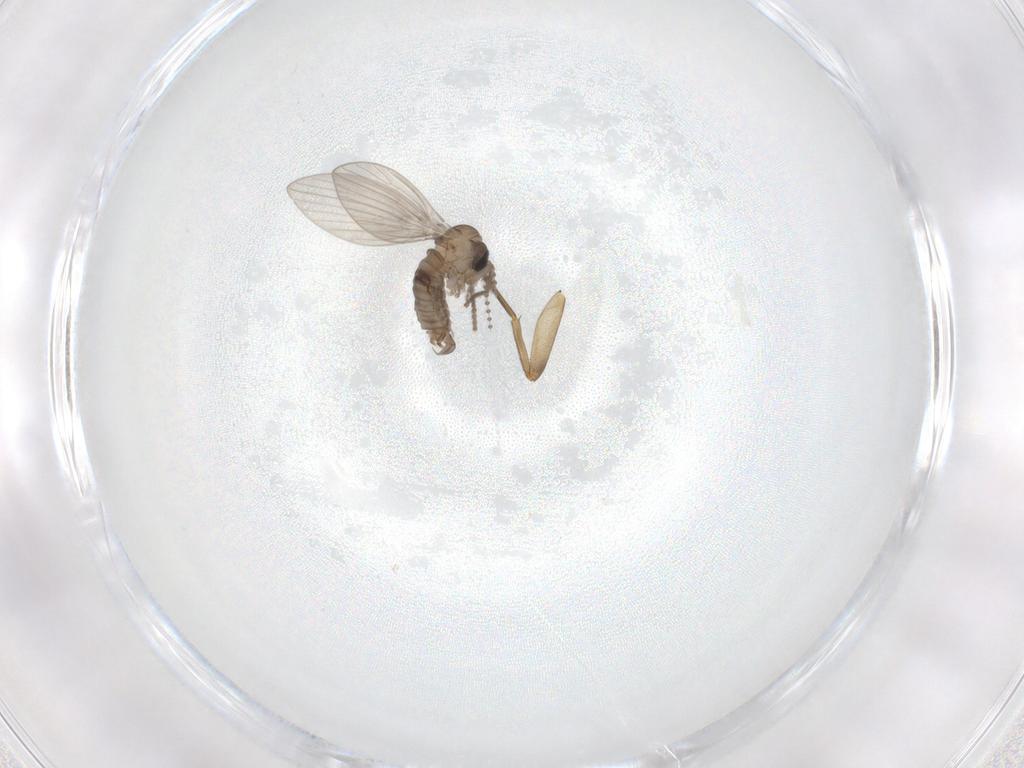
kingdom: Animalia
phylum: Arthropoda
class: Insecta
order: Diptera
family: Phoridae
